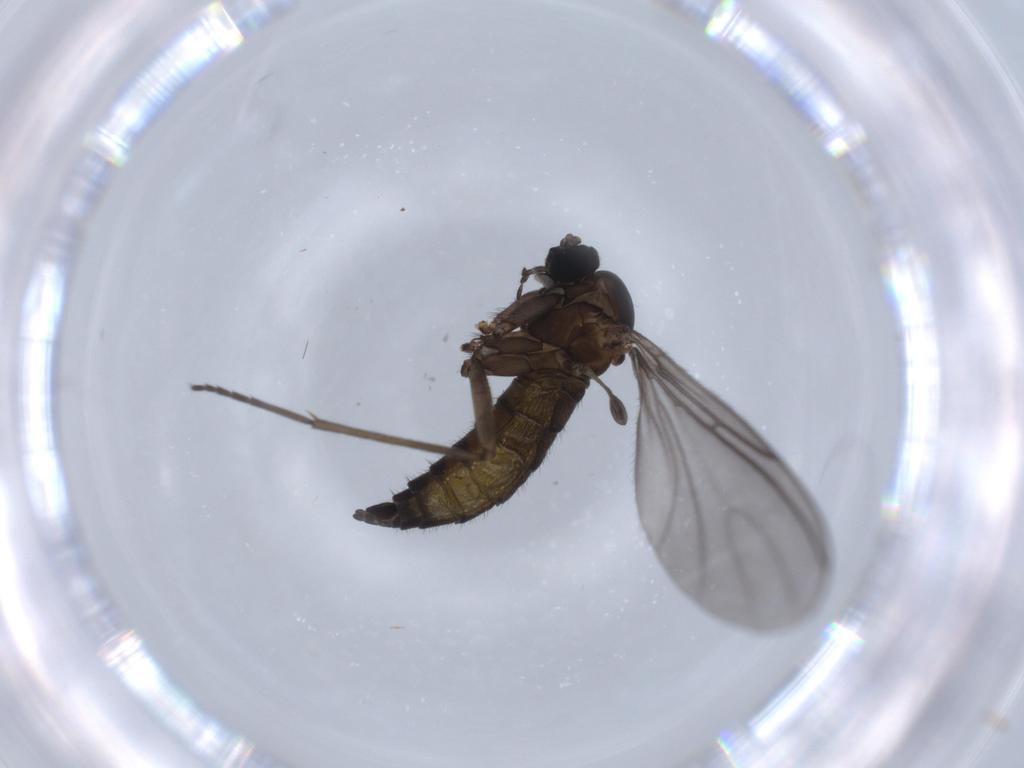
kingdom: Animalia
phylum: Arthropoda
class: Insecta
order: Diptera
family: Sciaridae
